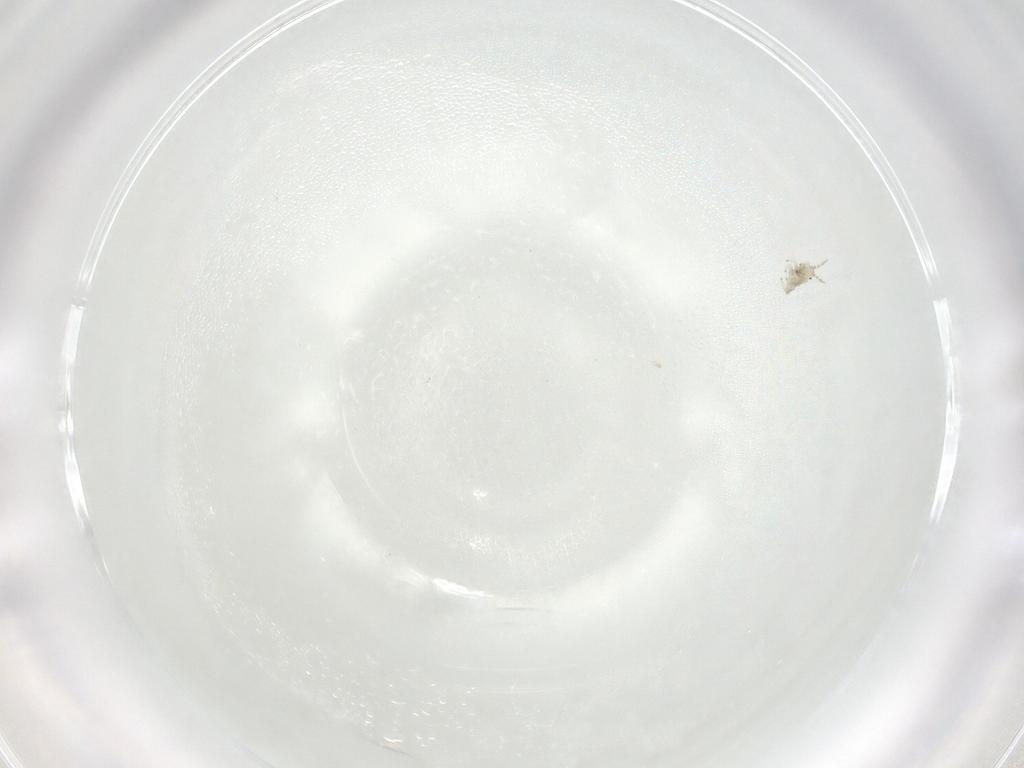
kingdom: Animalia
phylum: Arthropoda
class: Insecta
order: Thysanoptera
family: Thripidae
